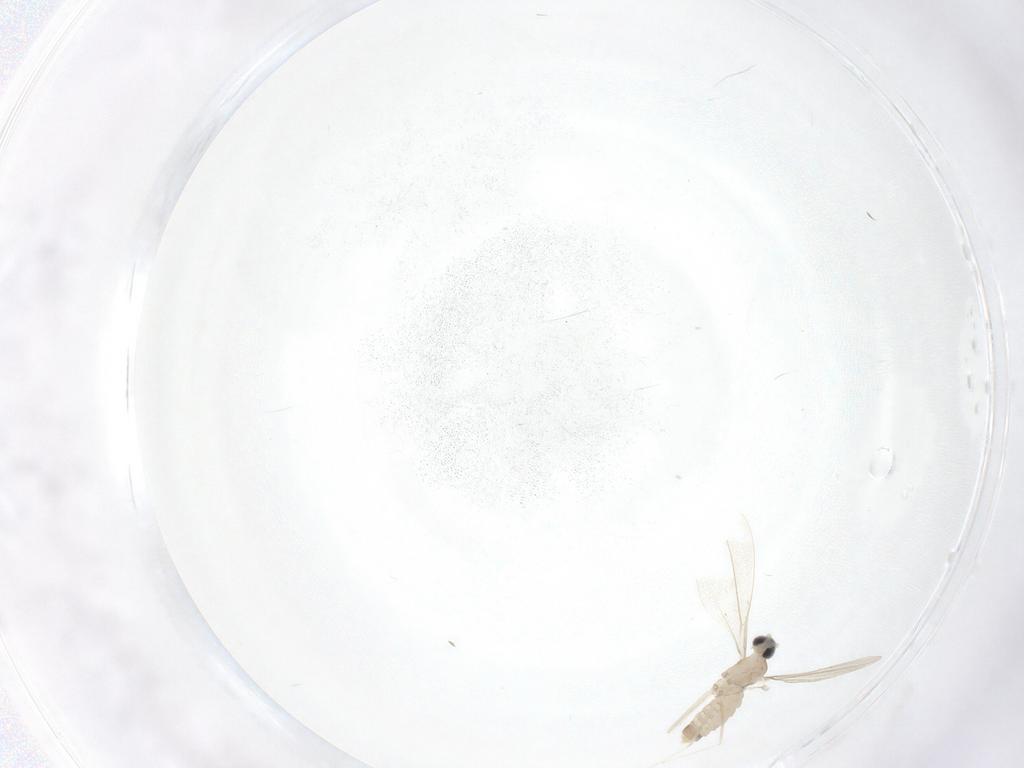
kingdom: Animalia
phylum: Arthropoda
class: Insecta
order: Diptera
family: Cecidomyiidae
